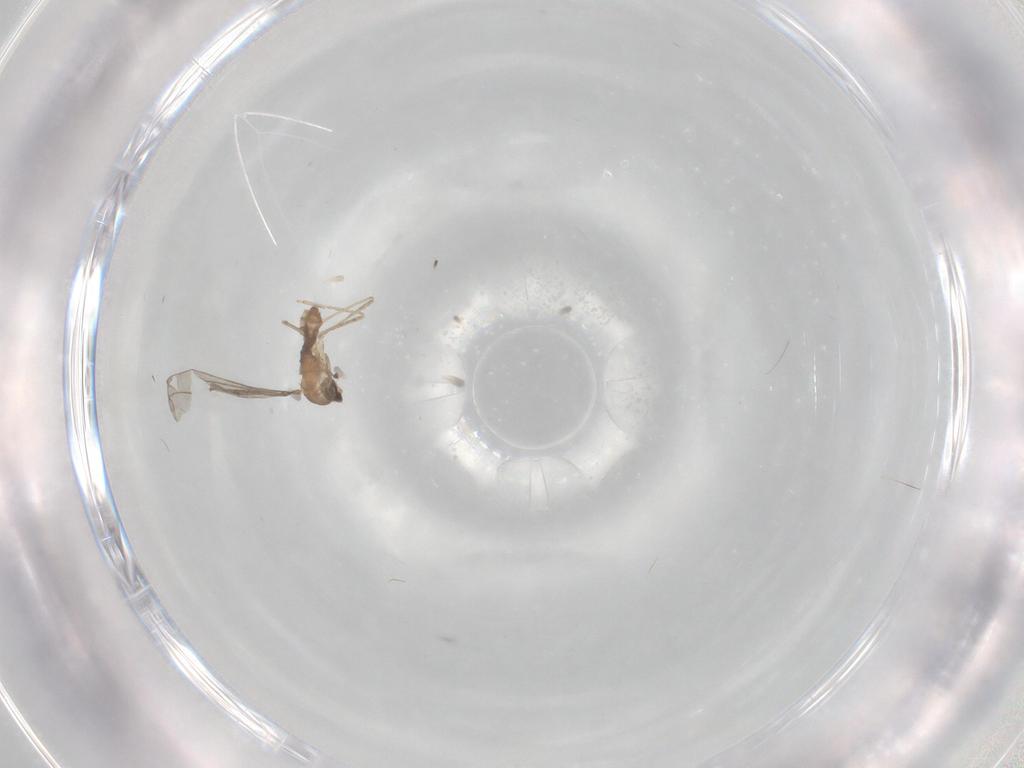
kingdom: Animalia
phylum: Arthropoda
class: Insecta
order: Diptera
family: Cecidomyiidae
